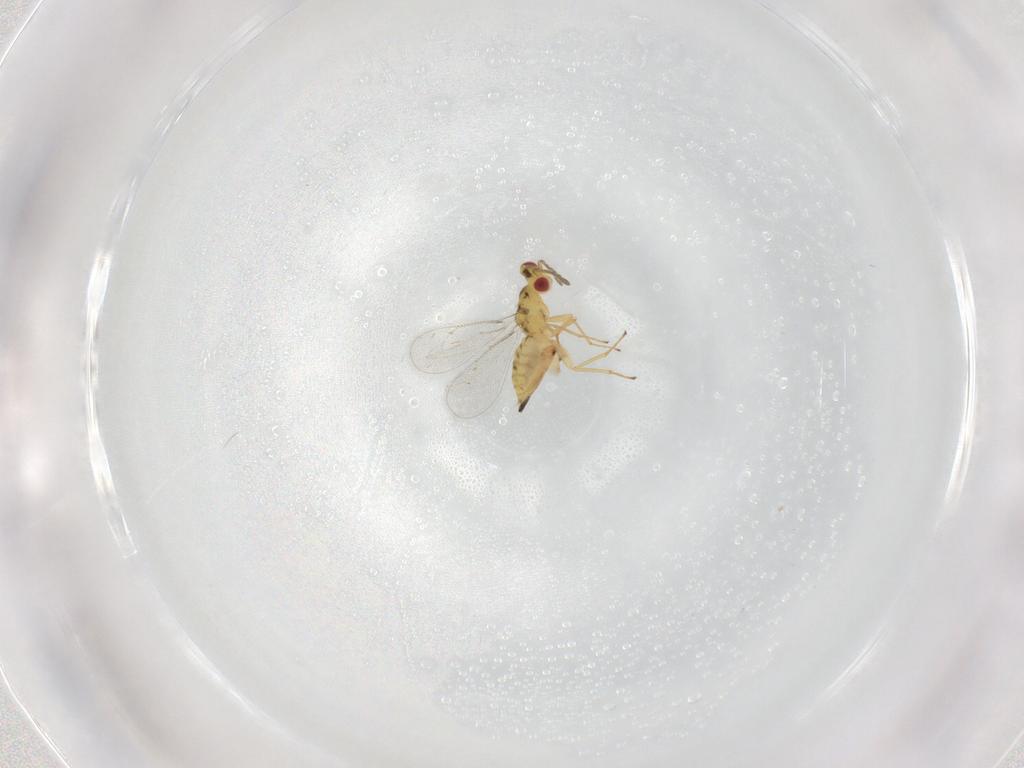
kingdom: Animalia
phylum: Arthropoda
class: Insecta
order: Hymenoptera
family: Eulophidae
